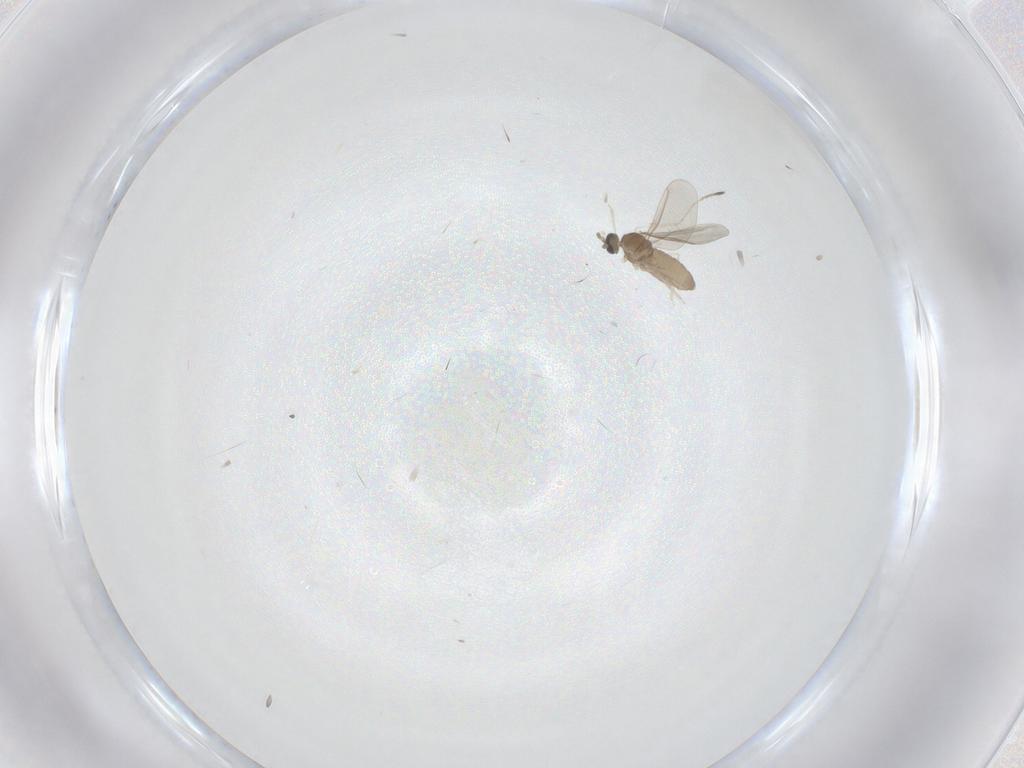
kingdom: Animalia
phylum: Arthropoda
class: Insecta
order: Diptera
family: Cecidomyiidae
